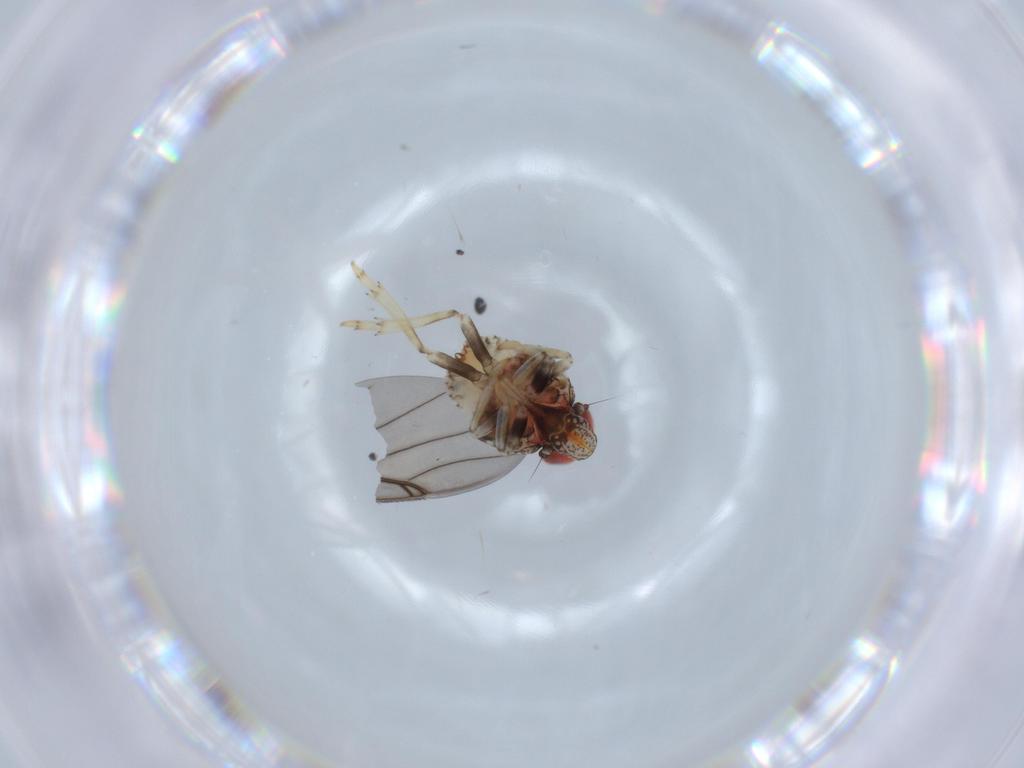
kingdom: Animalia
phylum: Arthropoda
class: Insecta
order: Hemiptera
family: Issidae
